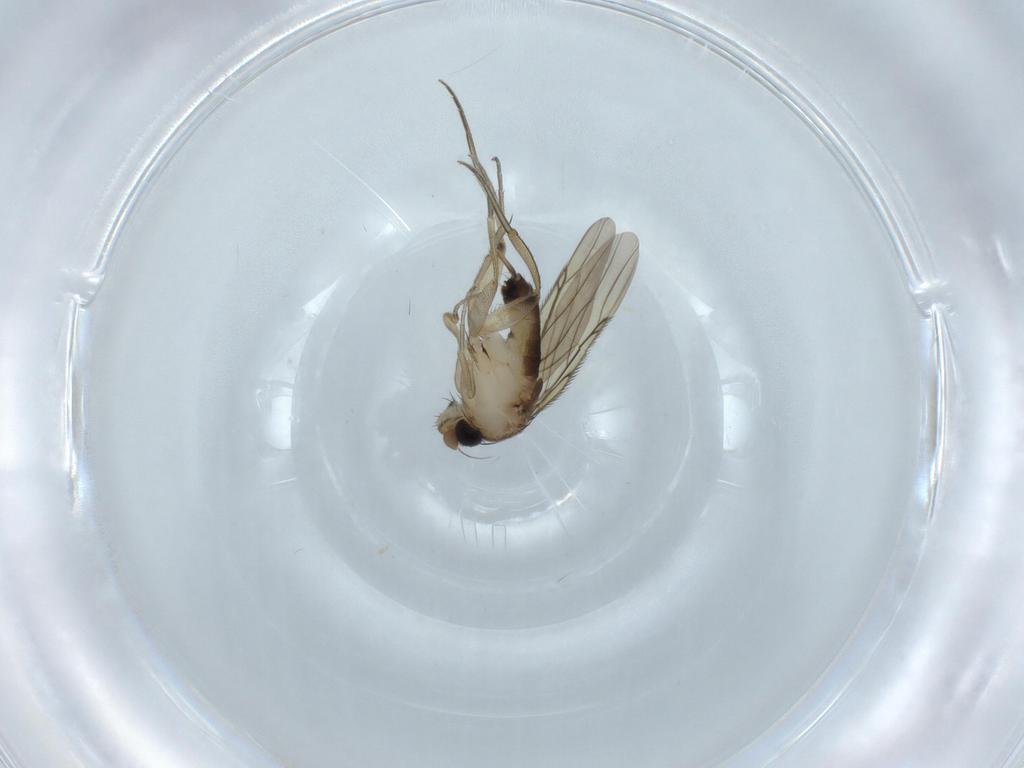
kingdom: Animalia
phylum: Arthropoda
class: Insecta
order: Diptera
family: Phoridae
